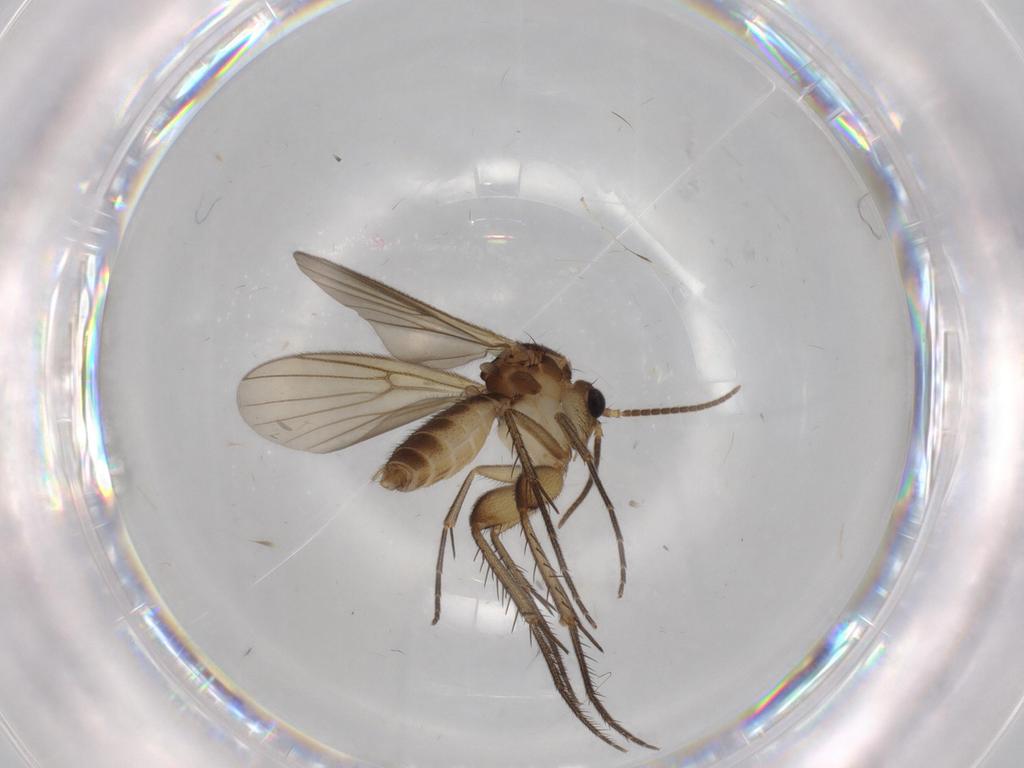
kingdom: Animalia
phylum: Arthropoda
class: Insecta
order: Diptera
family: Cecidomyiidae
